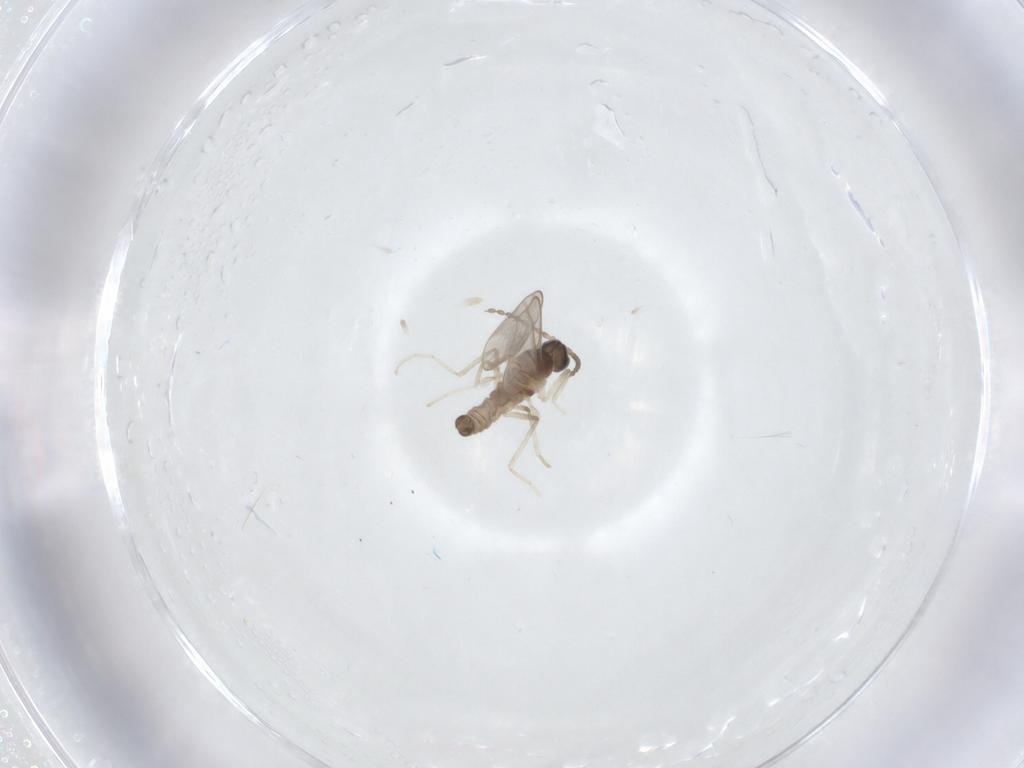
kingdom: Animalia
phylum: Arthropoda
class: Insecta
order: Diptera
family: Cecidomyiidae
